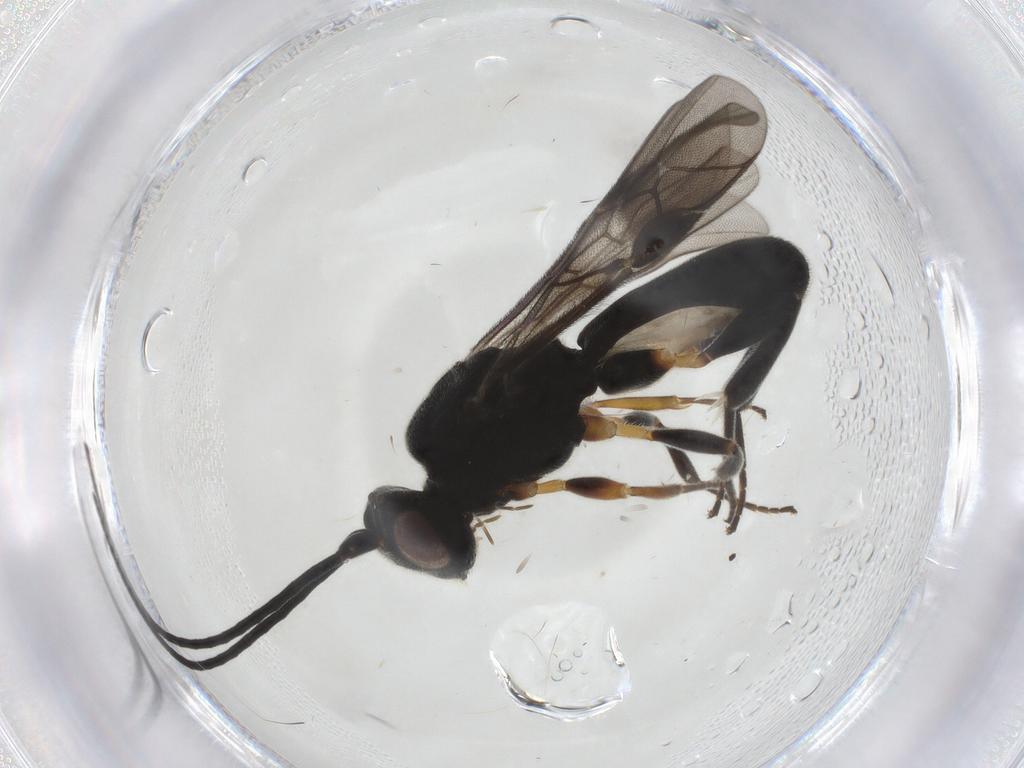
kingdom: Animalia
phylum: Arthropoda
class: Insecta
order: Hymenoptera
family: Braconidae
